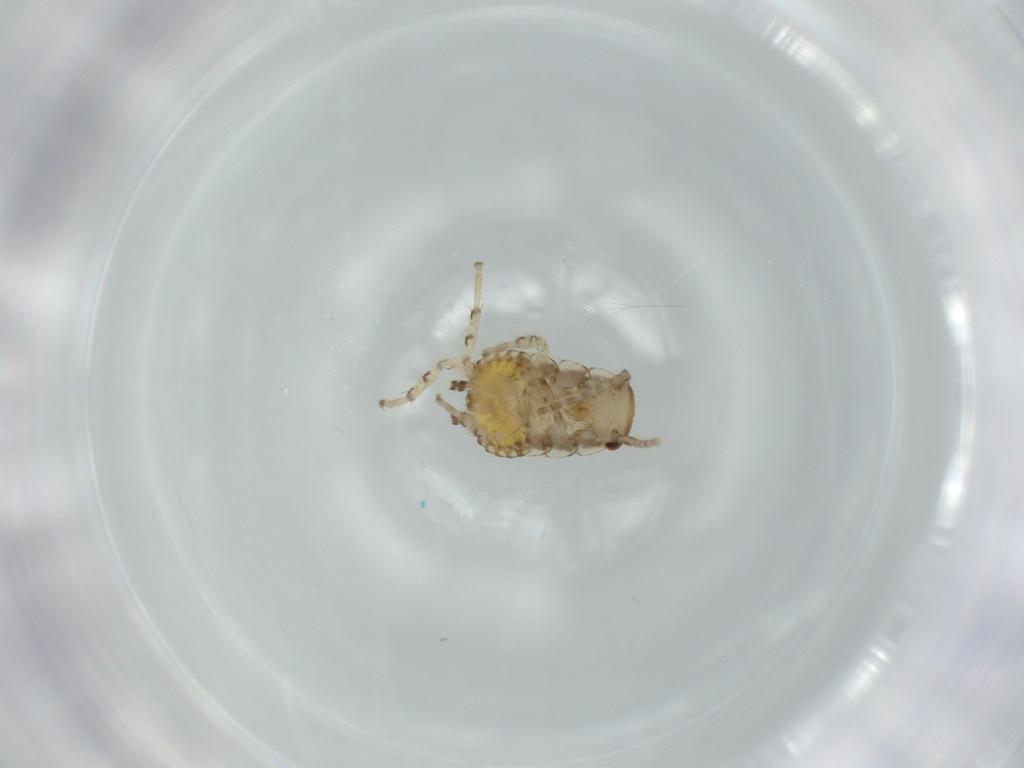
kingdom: Animalia
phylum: Arthropoda
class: Insecta
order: Blattodea
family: Ectobiidae
